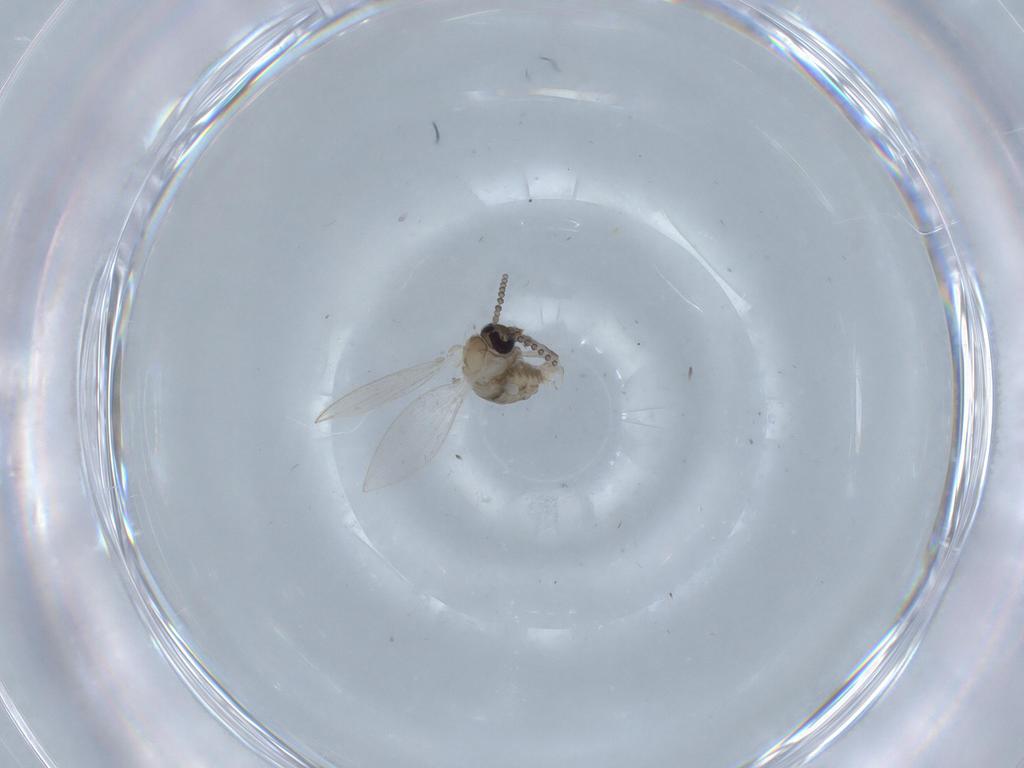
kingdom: Animalia
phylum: Arthropoda
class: Insecta
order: Diptera
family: Psychodidae
